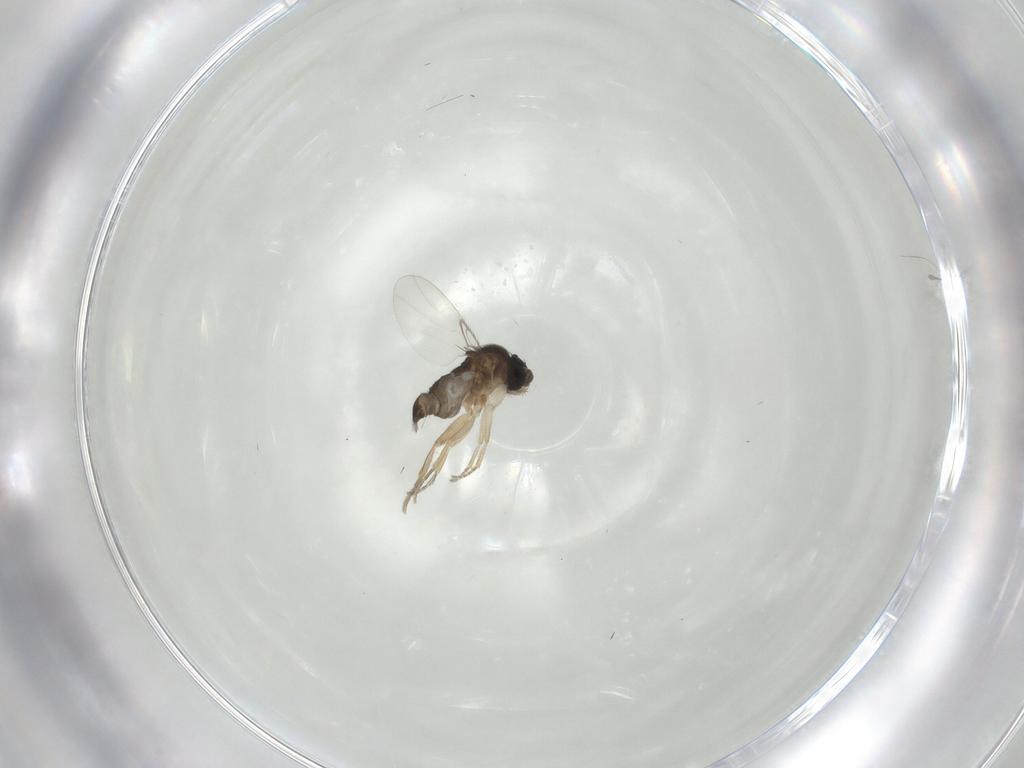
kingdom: Animalia
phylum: Arthropoda
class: Insecta
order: Diptera
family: Phoridae
